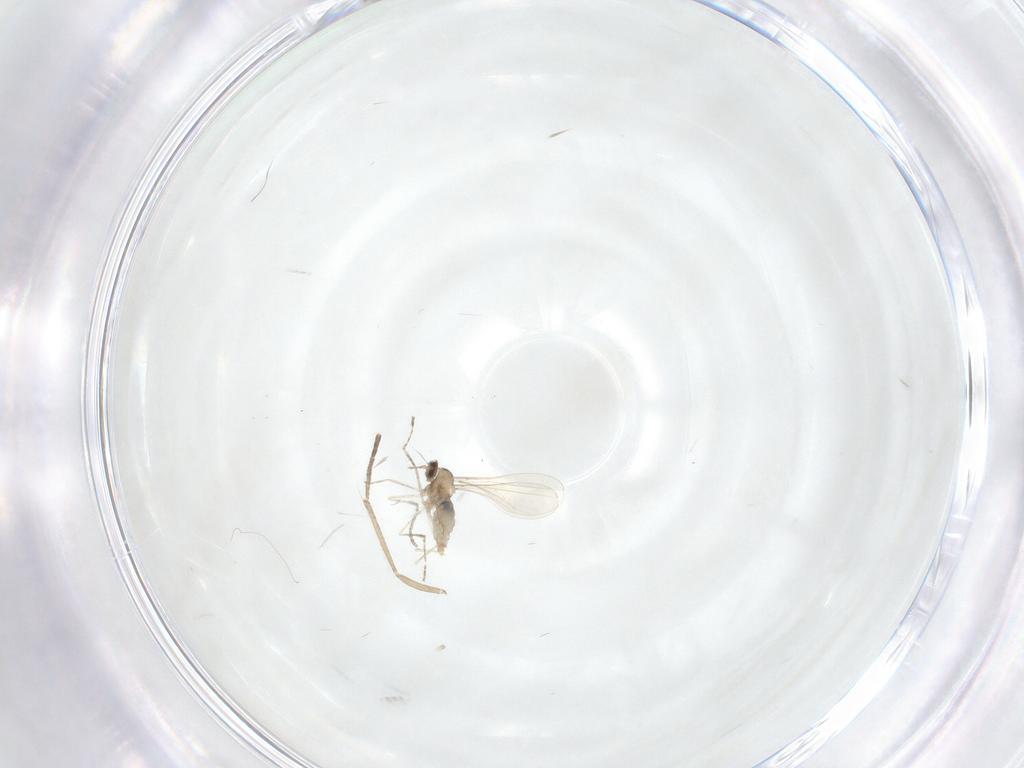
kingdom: Animalia
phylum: Arthropoda
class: Insecta
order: Diptera
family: Cecidomyiidae
